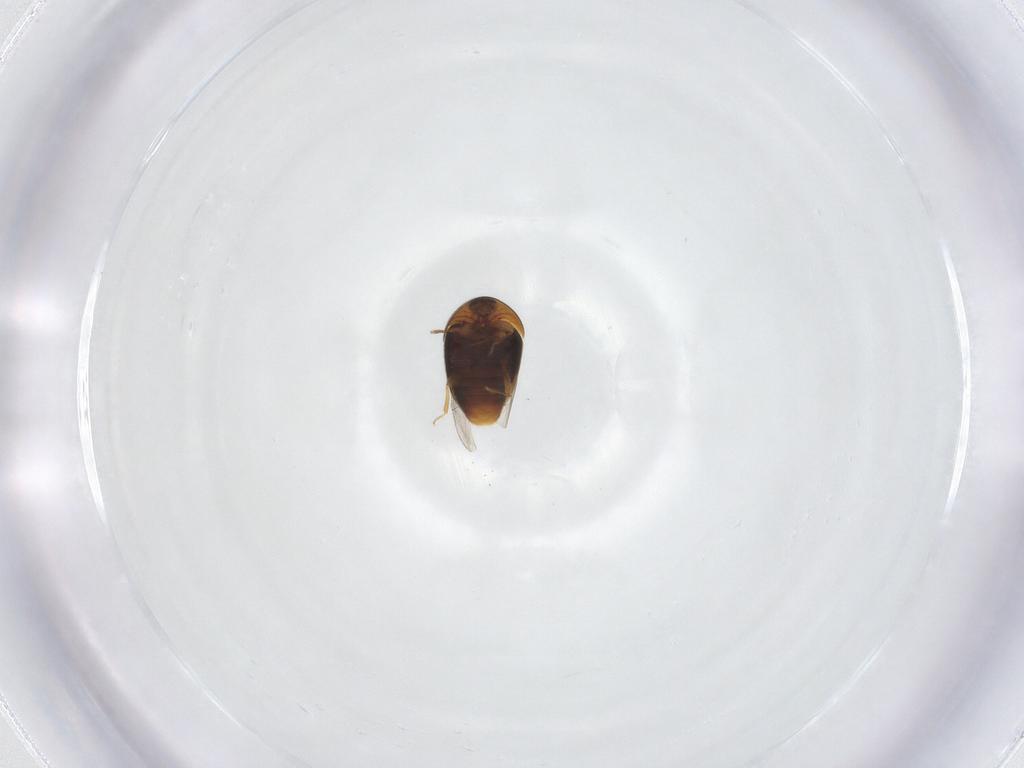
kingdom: Animalia
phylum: Arthropoda
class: Insecta
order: Coleoptera
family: Corylophidae
